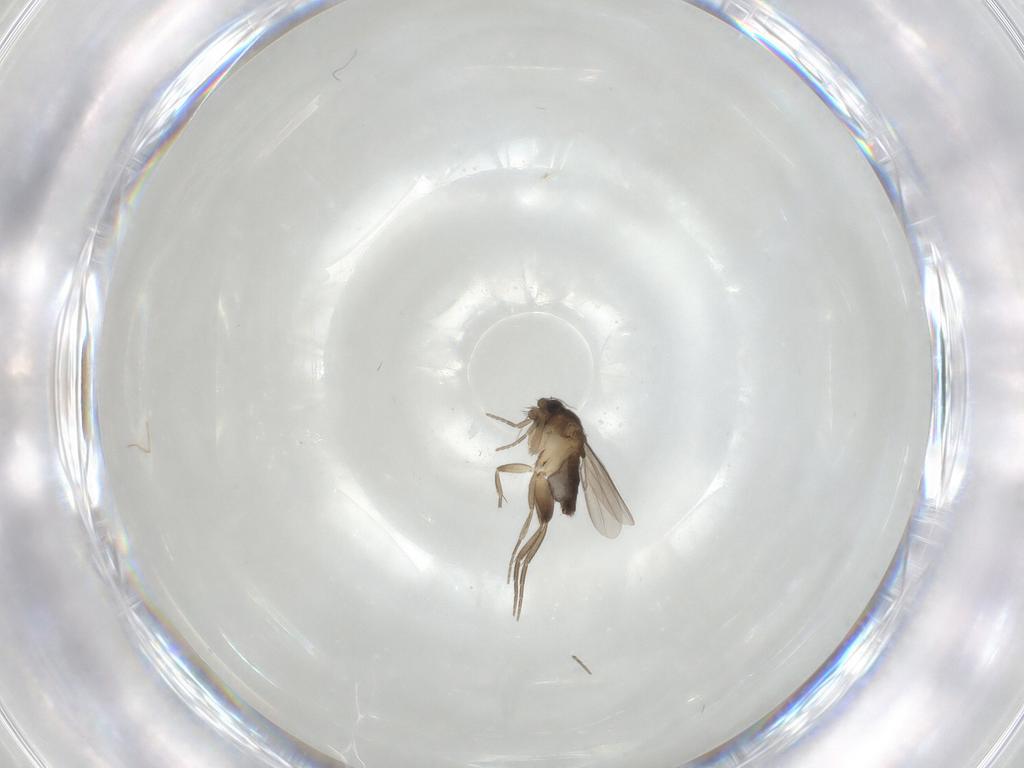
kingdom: Animalia
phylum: Arthropoda
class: Insecta
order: Diptera
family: Phoridae
